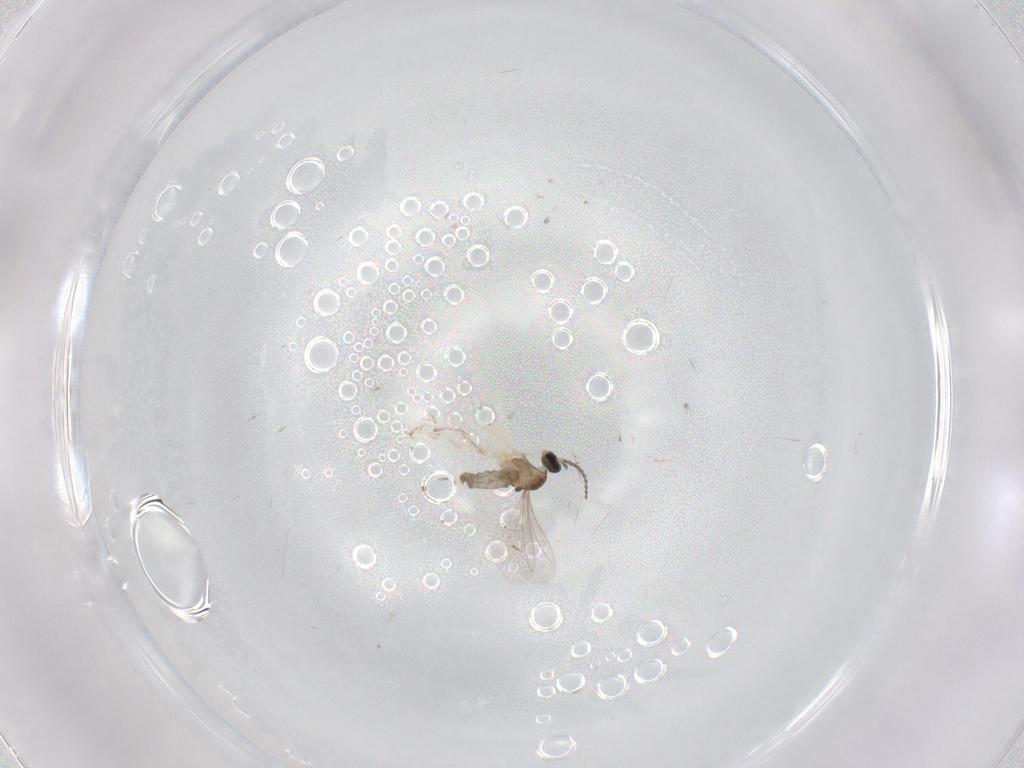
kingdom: Animalia
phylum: Arthropoda
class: Insecta
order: Diptera
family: Cecidomyiidae
